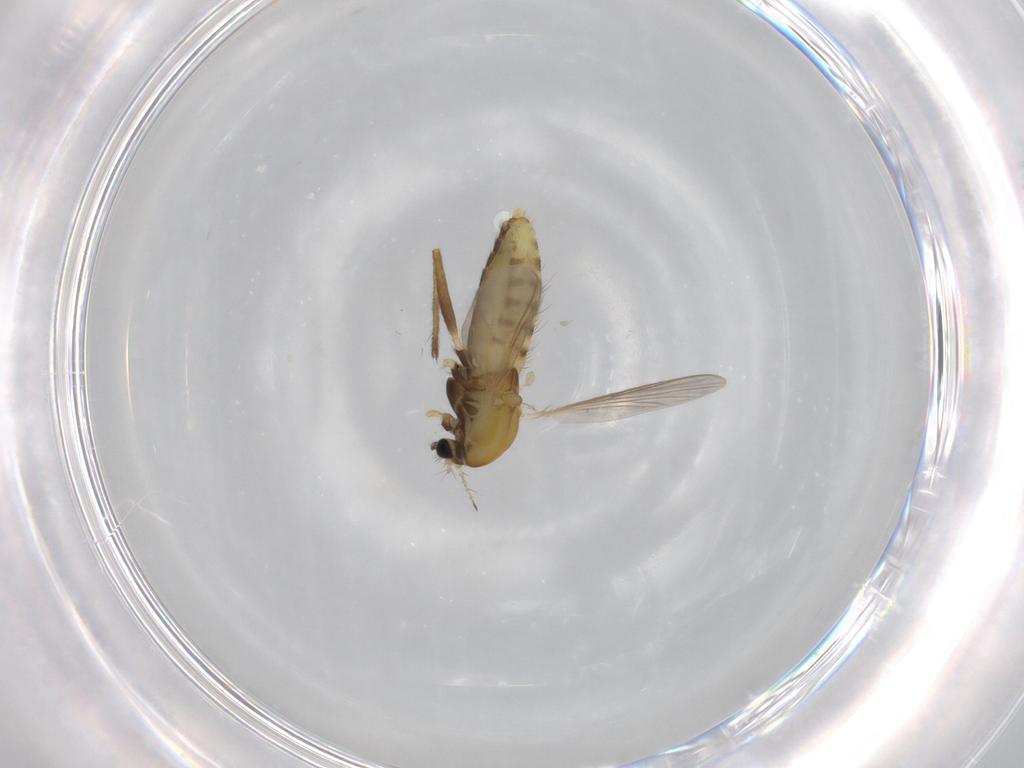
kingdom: Animalia
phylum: Arthropoda
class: Insecta
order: Diptera
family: Chironomidae
